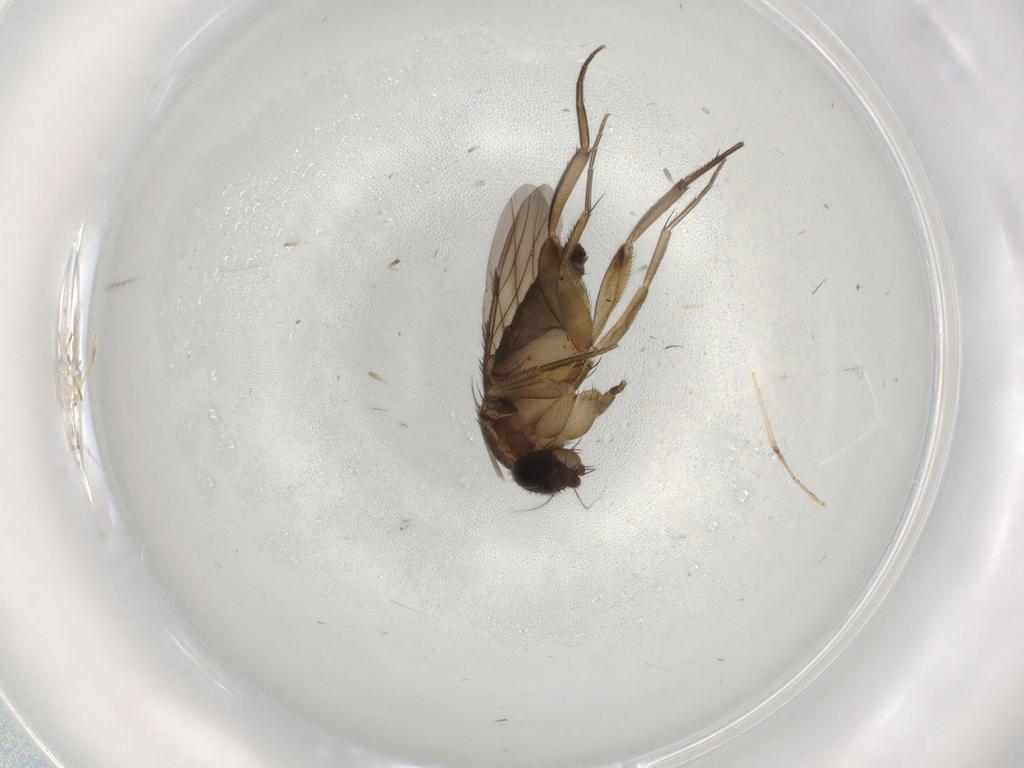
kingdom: Animalia
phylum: Arthropoda
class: Insecta
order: Diptera
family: Phoridae
